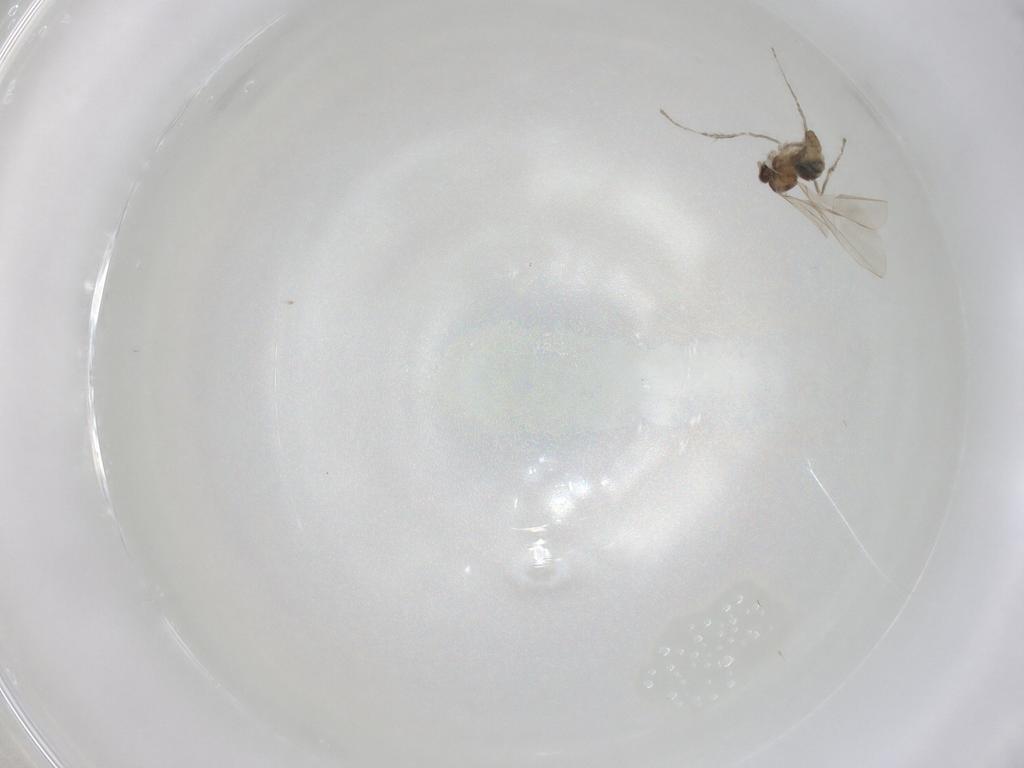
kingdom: Animalia
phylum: Arthropoda
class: Insecta
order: Diptera
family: Cecidomyiidae
